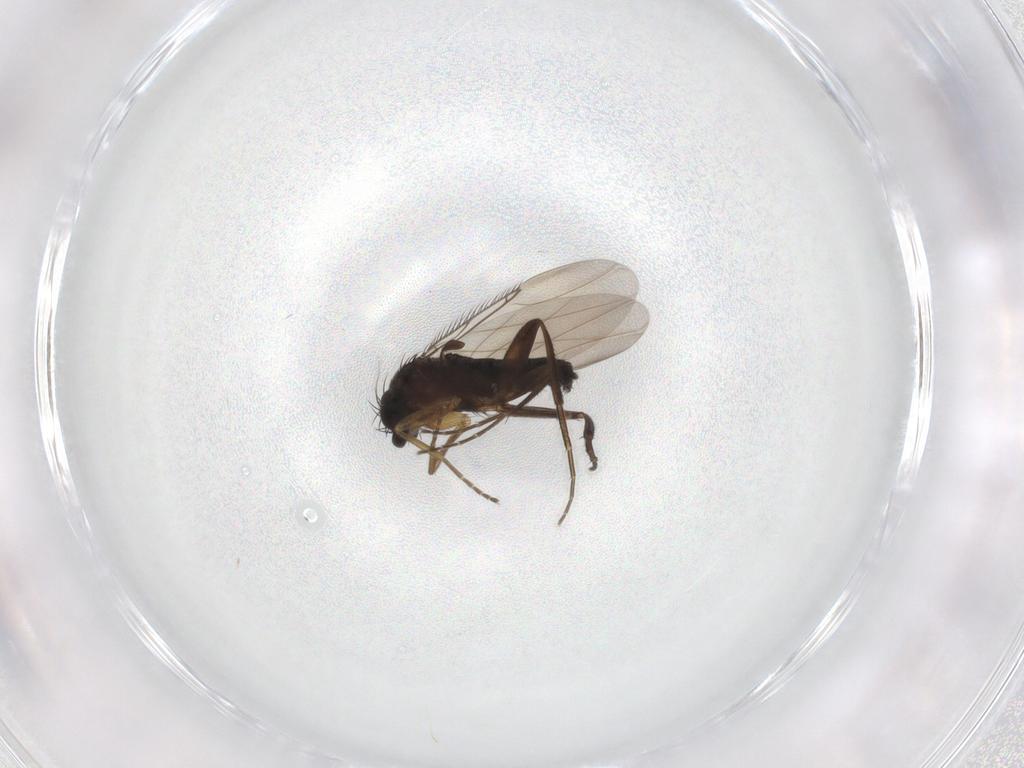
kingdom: Animalia
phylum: Arthropoda
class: Insecta
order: Diptera
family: Phoridae
